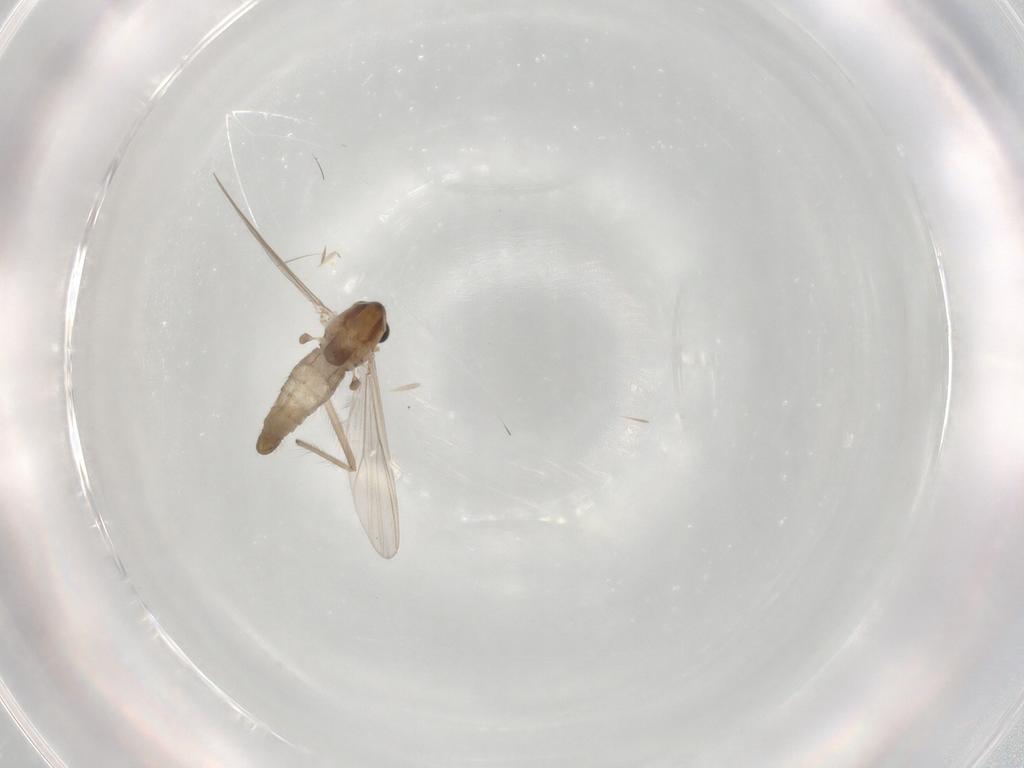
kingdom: Animalia
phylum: Arthropoda
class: Insecta
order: Diptera
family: Chironomidae
